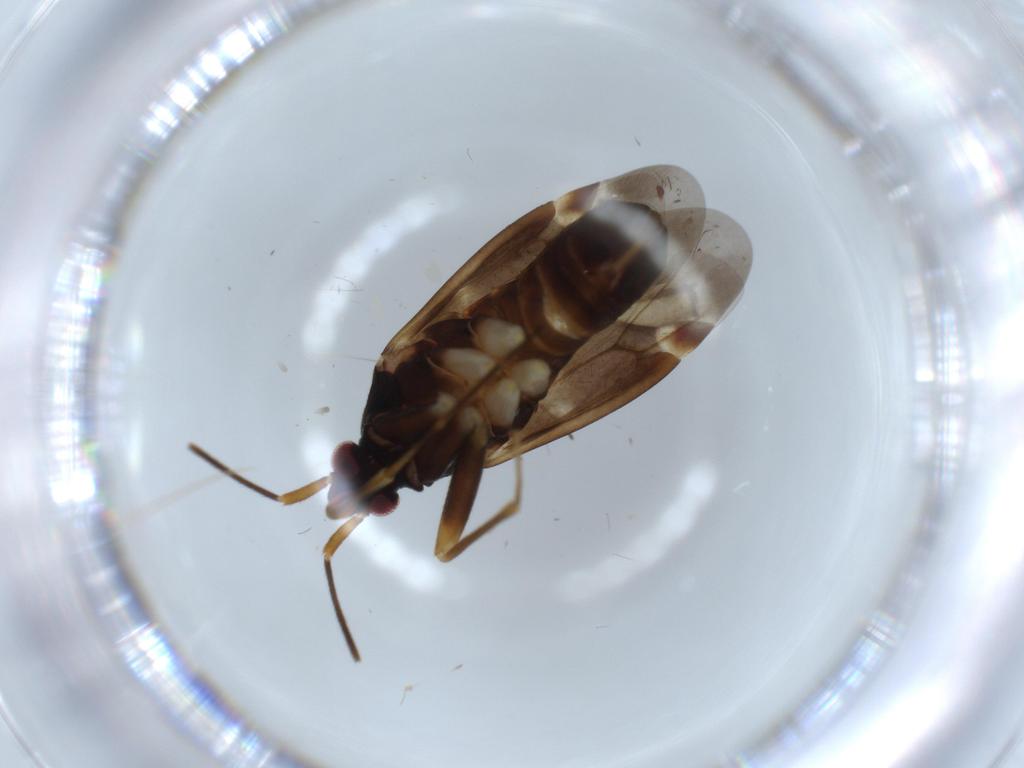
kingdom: Animalia
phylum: Arthropoda
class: Insecta
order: Hemiptera
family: Miridae
